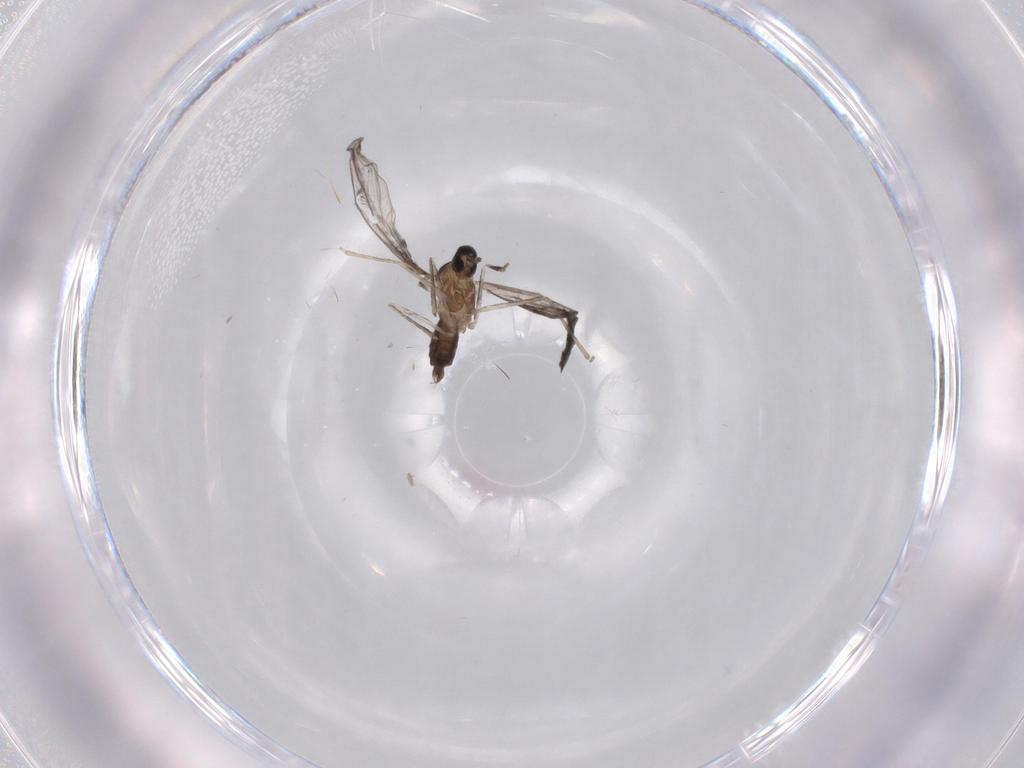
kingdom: Animalia
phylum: Arthropoda
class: Insecta
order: Diptera
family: Cecidomyiidae
